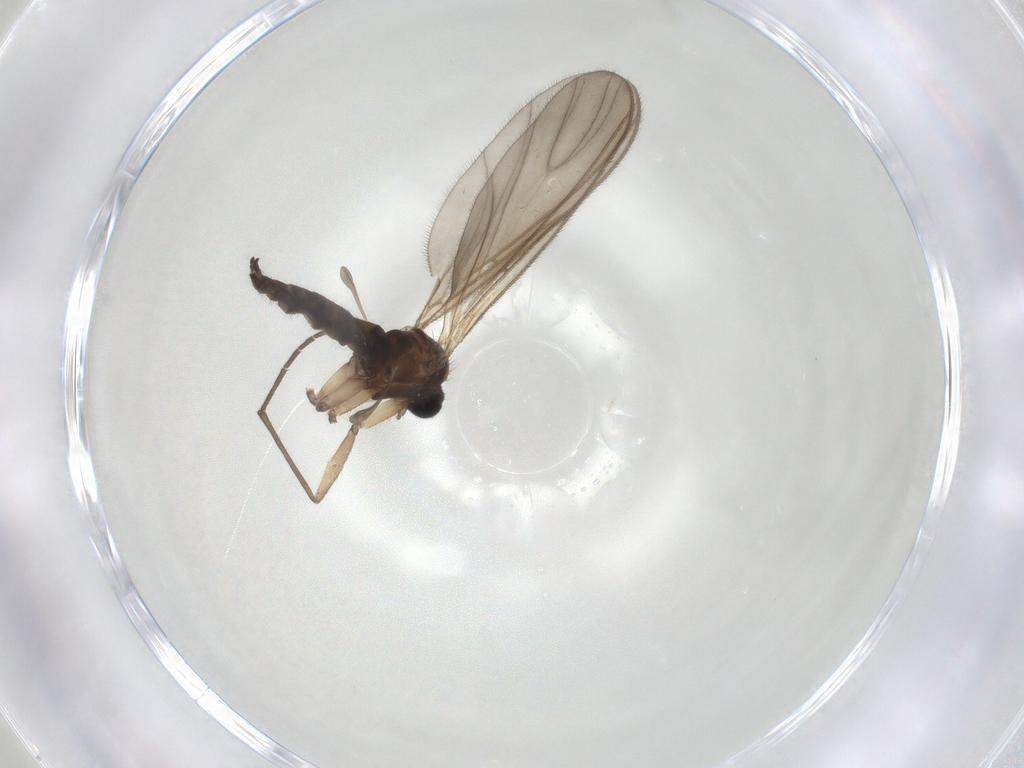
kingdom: Animalia
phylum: Arthropoda
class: Insecta
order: Diptera
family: Sciaridae
